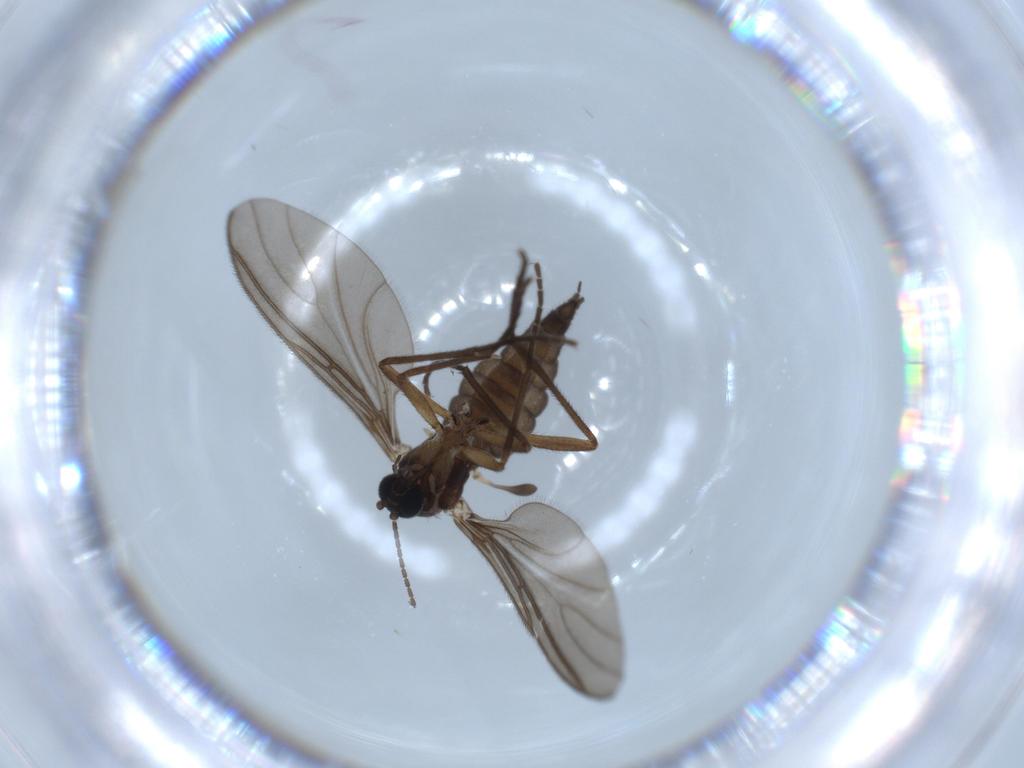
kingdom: Animalia
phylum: Arthropoda
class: Insecta
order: Diptera
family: Sciaridae
